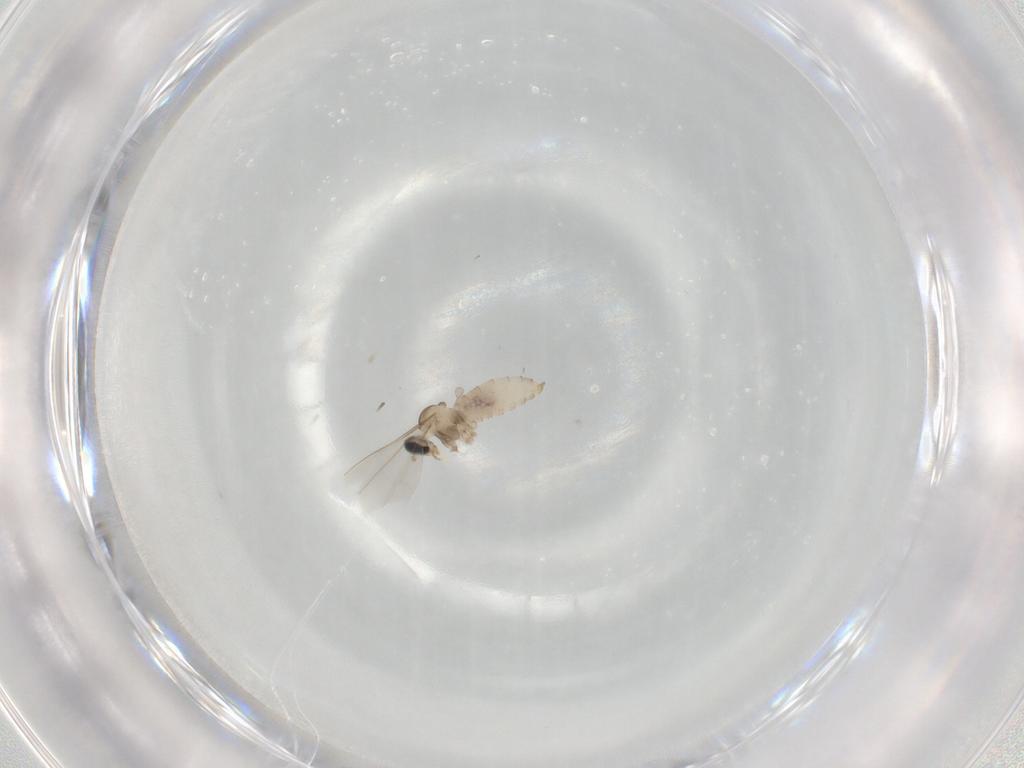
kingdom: Animalia
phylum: Arthropoda
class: Insecta
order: Diptera
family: Cecidomyiidae
